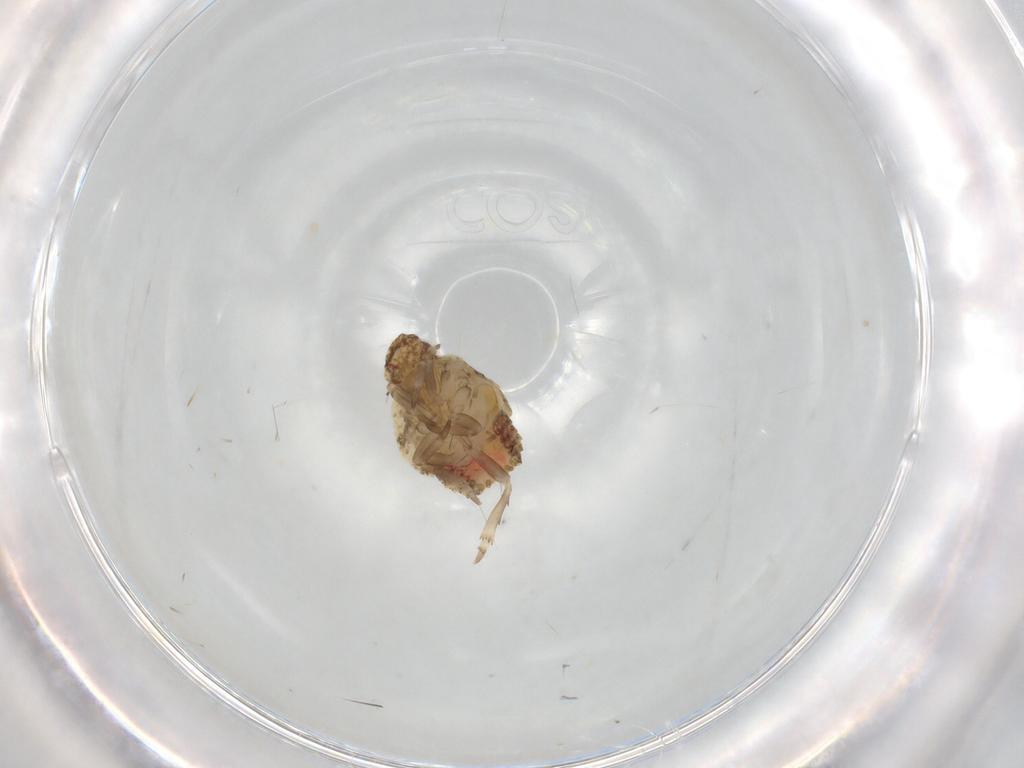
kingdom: Animalia
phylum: Arthropoda
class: Insecta
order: Hemiptera
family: Flatidae
